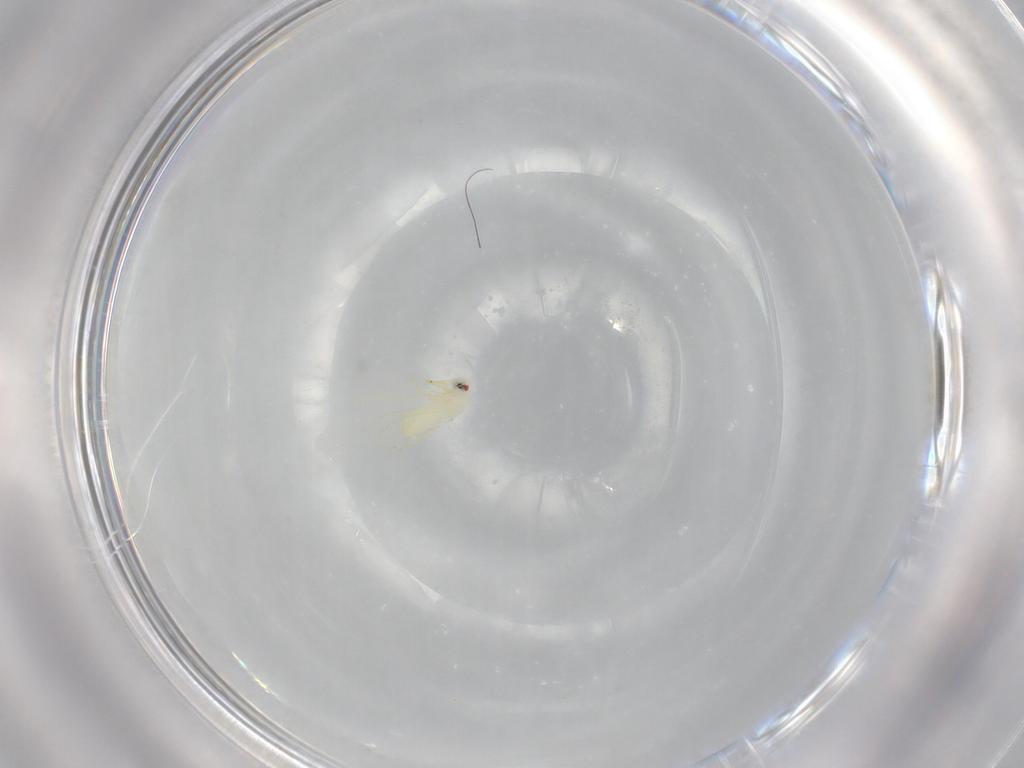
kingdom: Animalia
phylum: Arthropoda
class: Insecta
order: Hemiptera
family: Aleyrodidae
